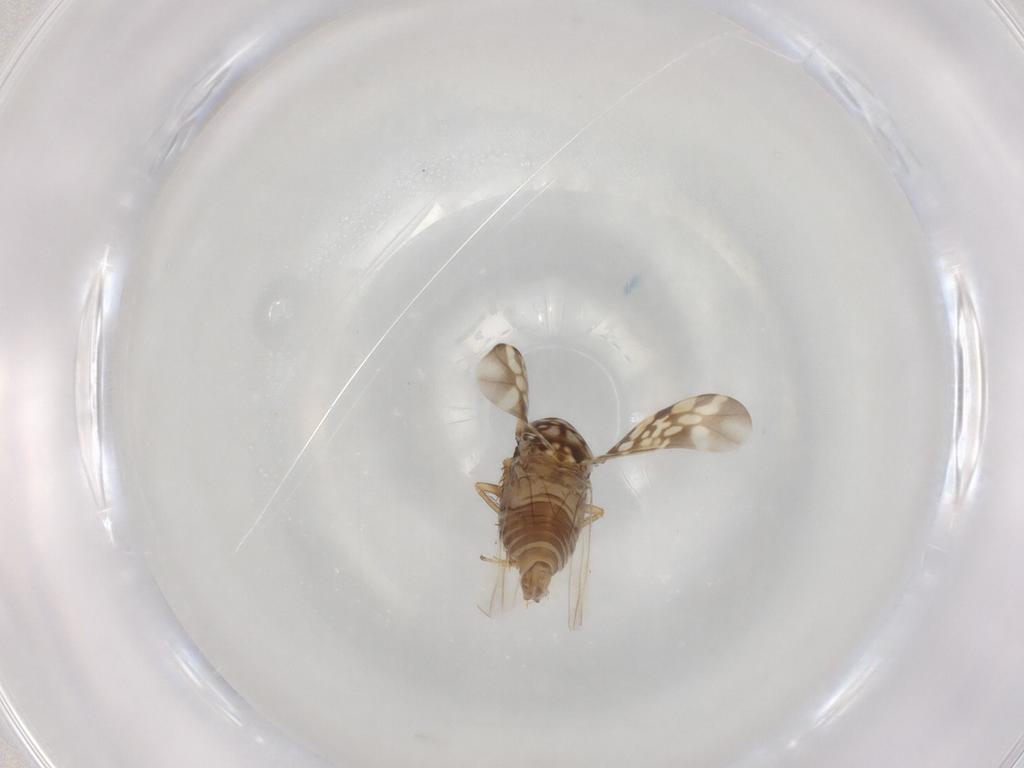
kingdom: Animalia
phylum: Arthropoda
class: Insecta
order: Hemiptera
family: Cicadellidae
